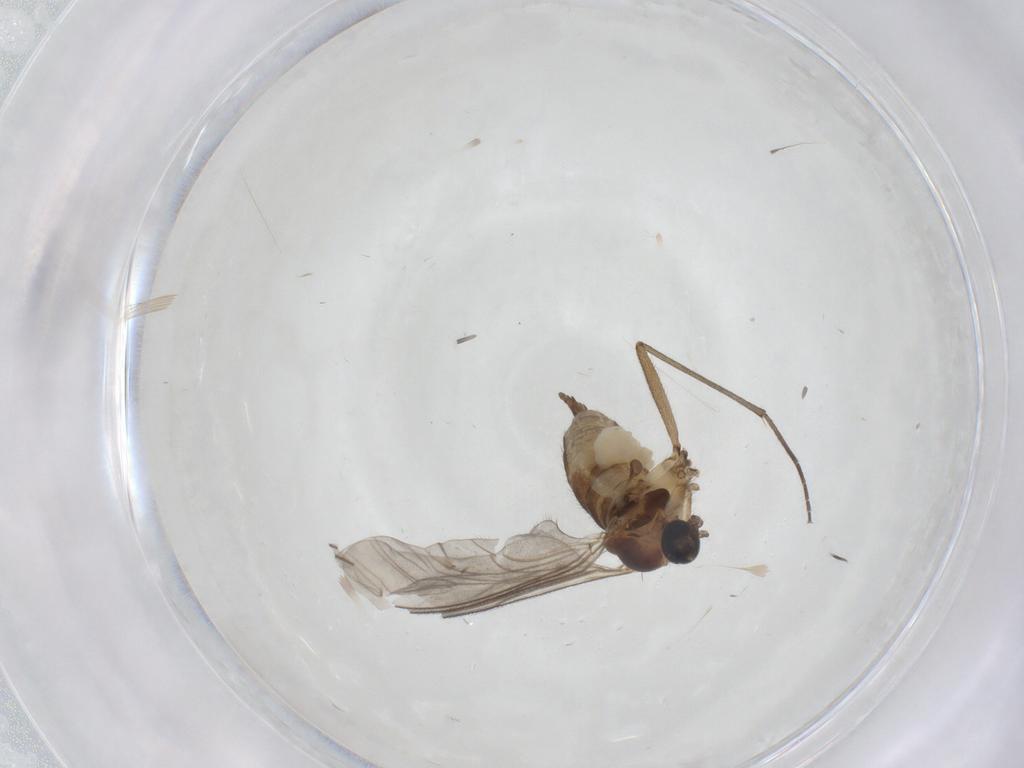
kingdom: Animalia
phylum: Arthropoda
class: Insecta
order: Diptera
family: Sciaridae
